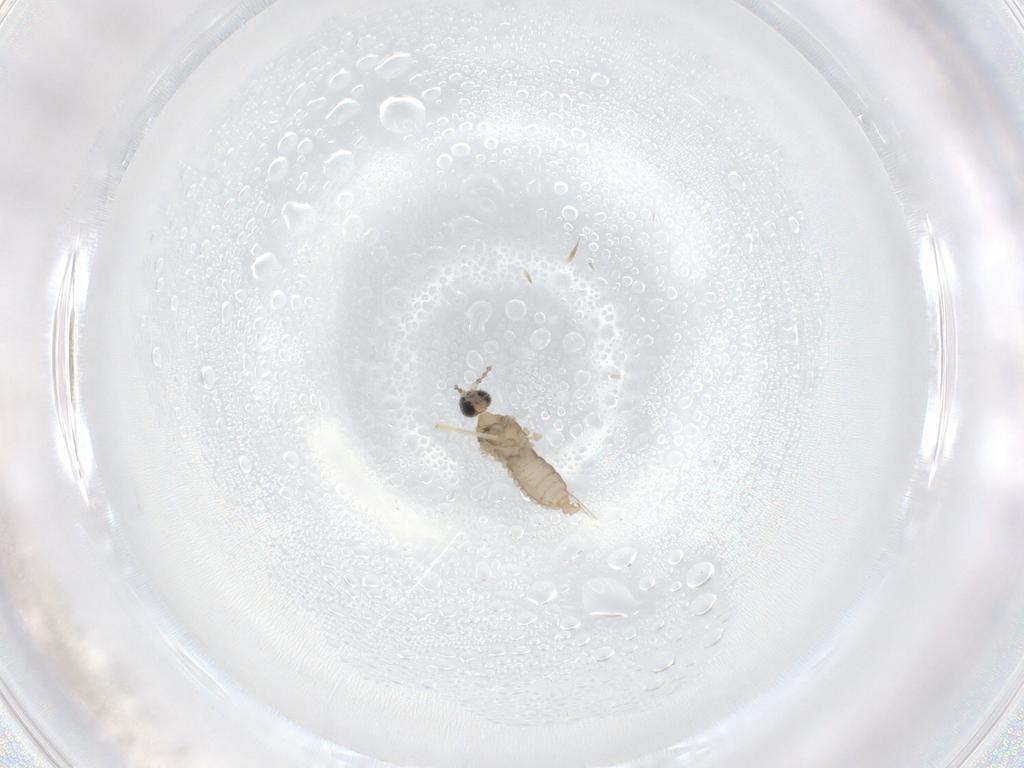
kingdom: Animalia
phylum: Arthropoda
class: Insecta
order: Diptera
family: Cecidomyiidae
